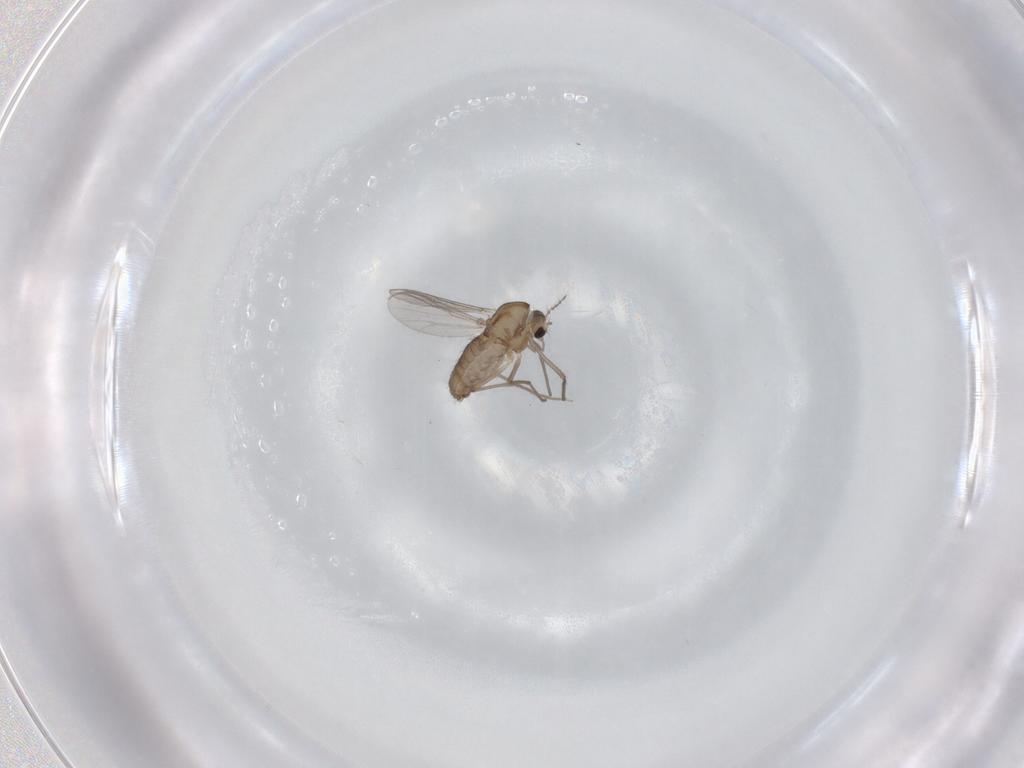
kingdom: Animalia
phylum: Arthropoda
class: Insecta
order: Diptera
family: Chironomidae
